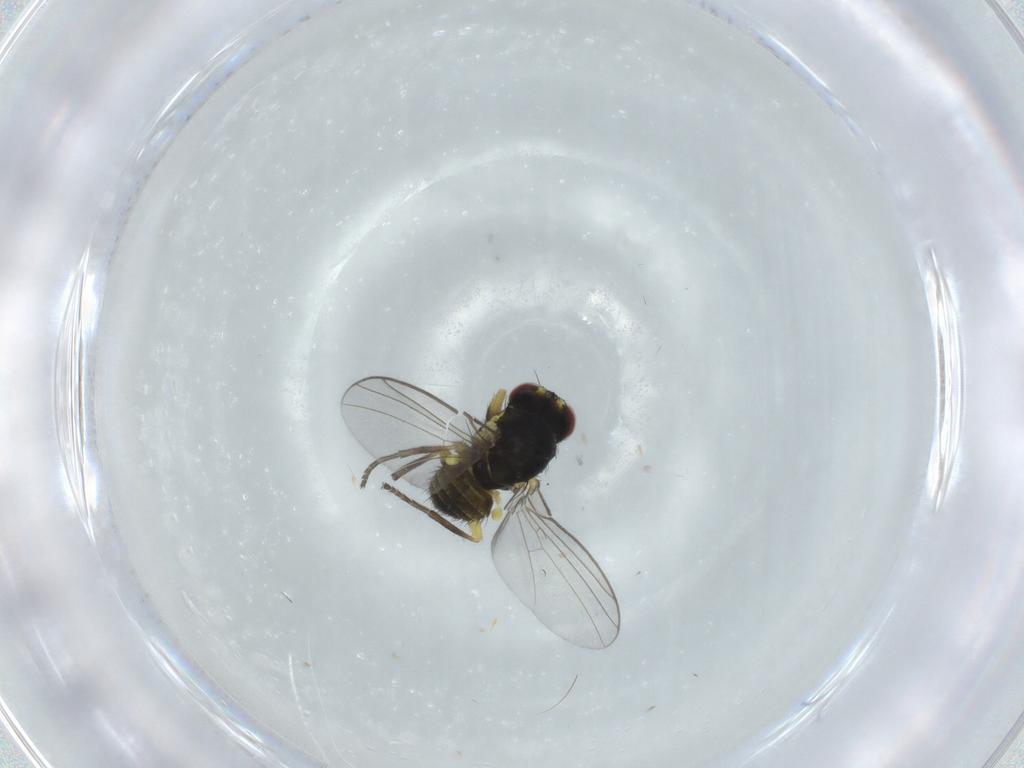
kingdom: Animalia
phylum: Arthropoda
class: Insecta
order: Diptera
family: Agromyzidae
